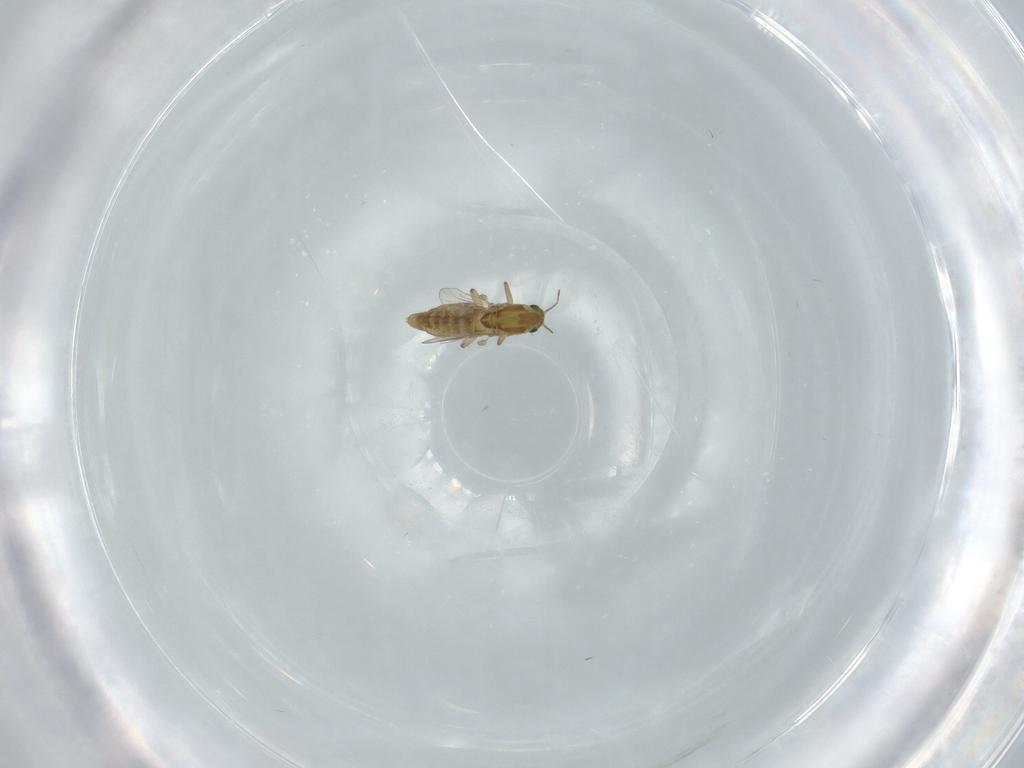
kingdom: Animalia
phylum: Arthropoda
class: Insecta
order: Diptera
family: Chironomidae
